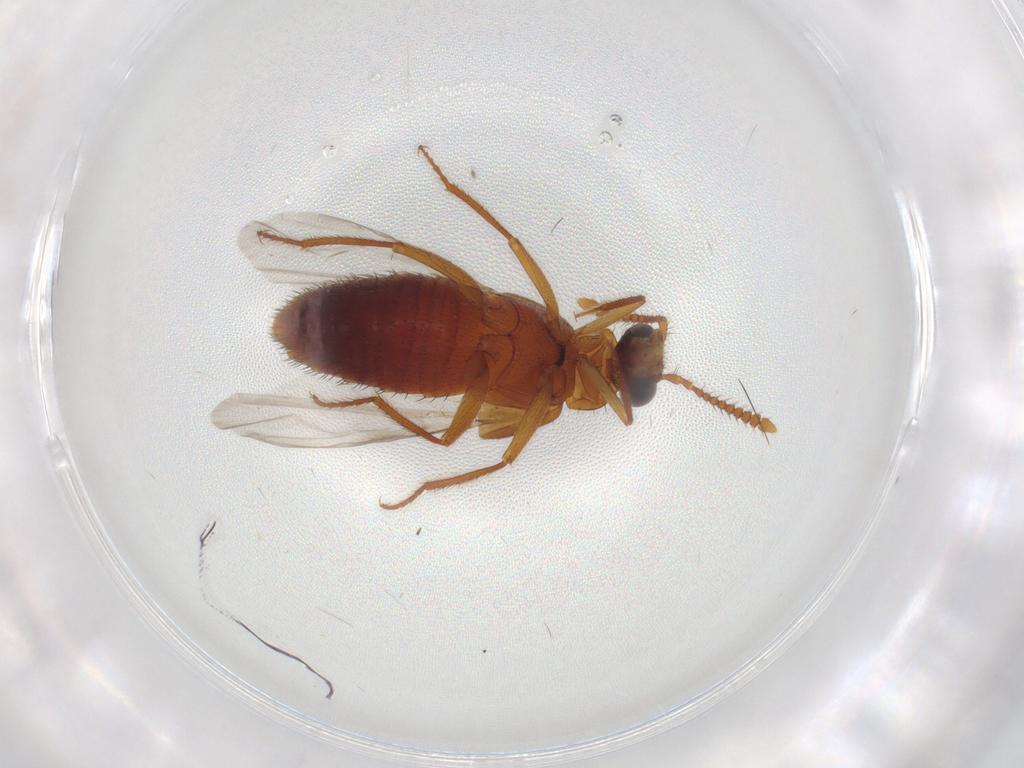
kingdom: Animalia
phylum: Arthropoda
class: Insecta
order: Coleoptera
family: Staphylinidae
